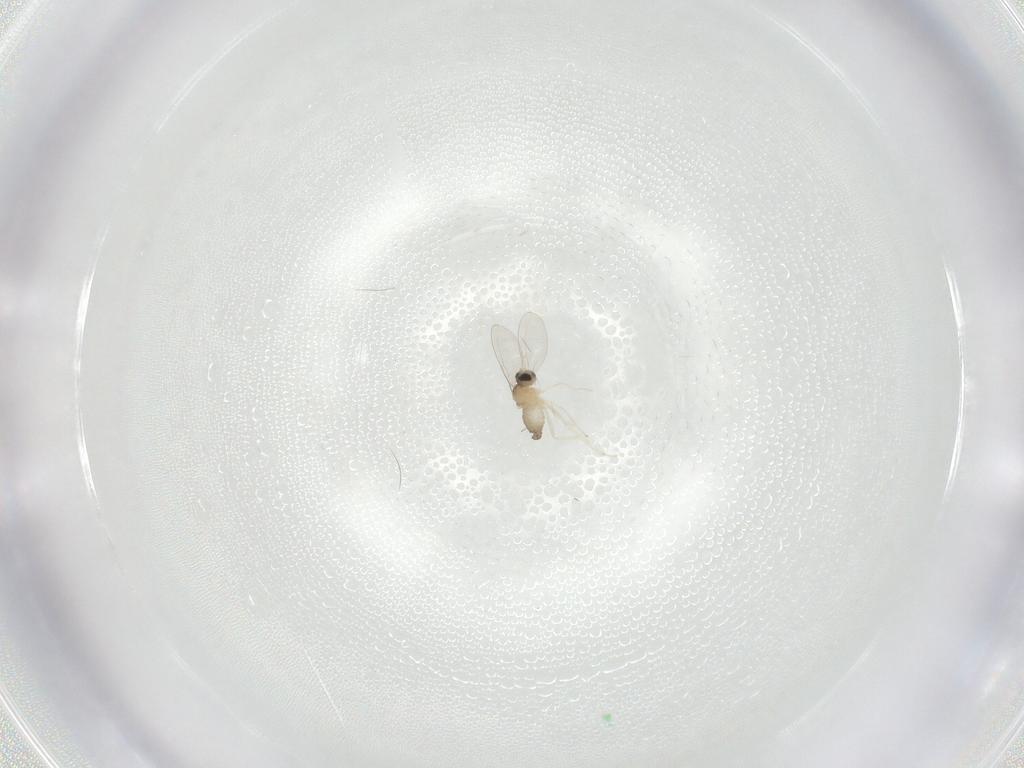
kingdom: Animalia
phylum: Arthropoda
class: Insecta
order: Diptera
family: Cecidomyiidae
